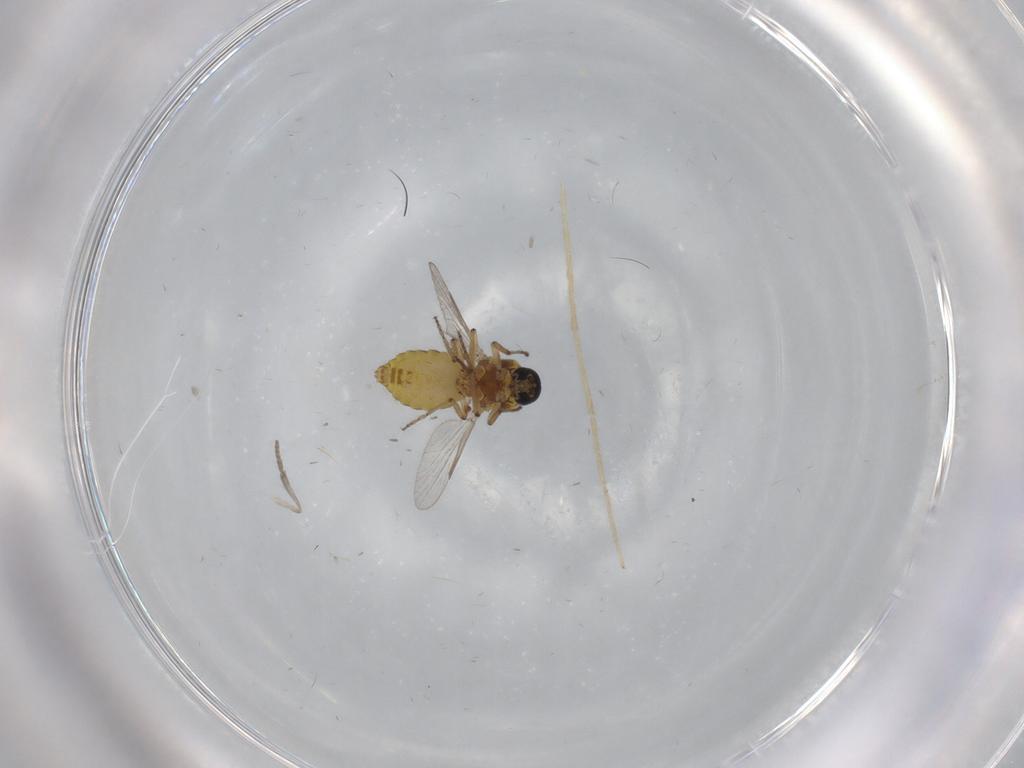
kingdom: Animalia
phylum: Arthropoda
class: Insecta
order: Diptera
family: Ceratopogonidae
